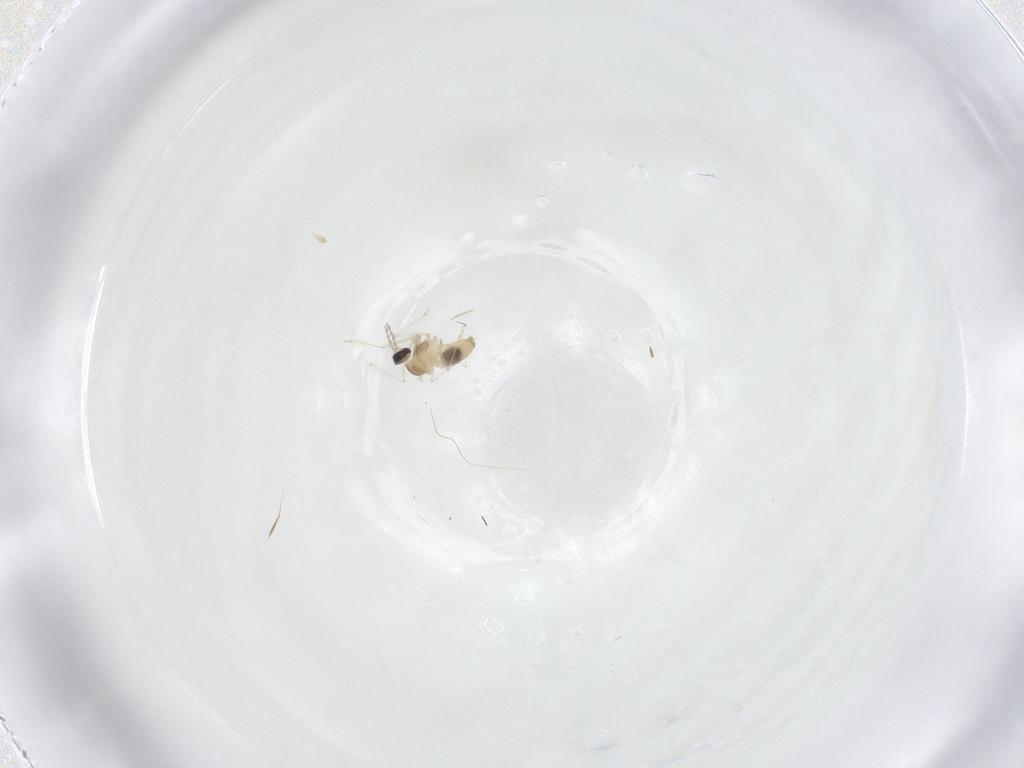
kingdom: Animalia
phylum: Arthropoda
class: Insecta
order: Diptera
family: Cecidomyiidae
